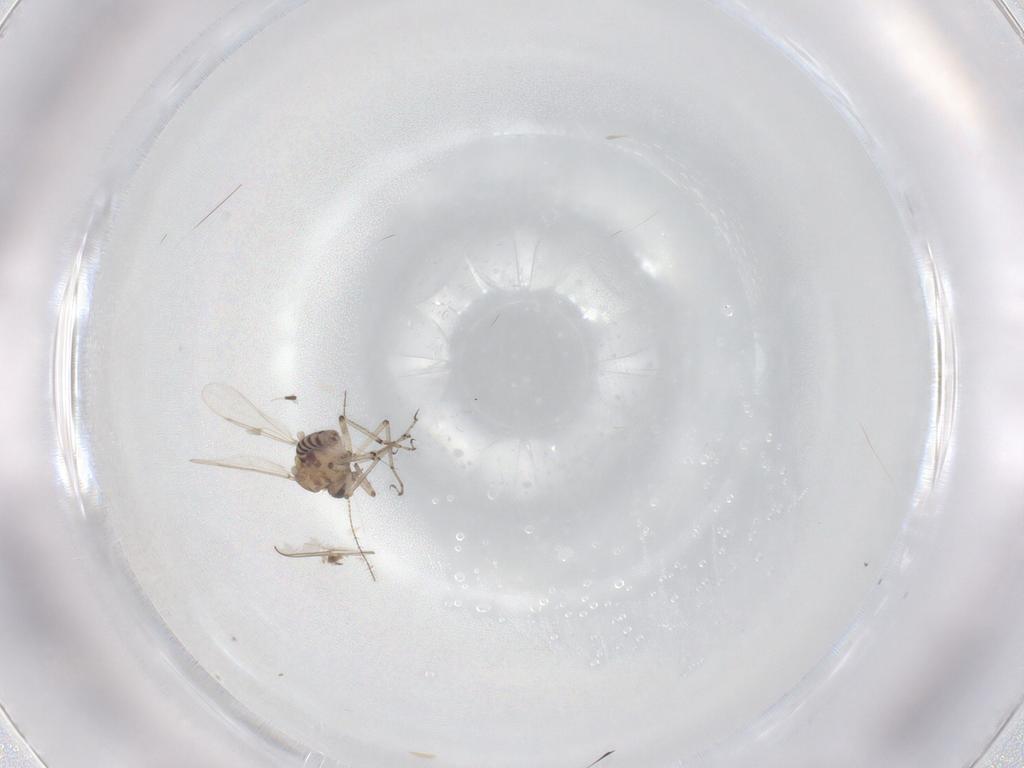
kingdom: Animalia
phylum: Arthropoda
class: Insecta
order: Diptera
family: Ceratopogonidae
